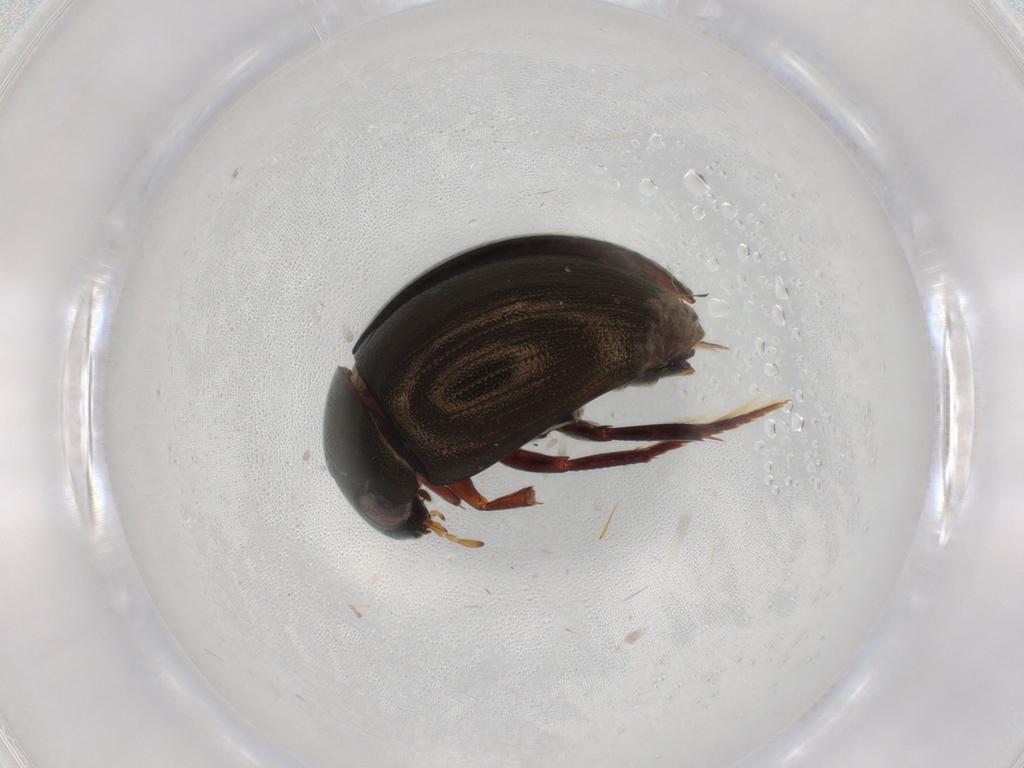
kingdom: Animalia
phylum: Arthropoda
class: Insecta
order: Coleoptera
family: Scarabaeidae
